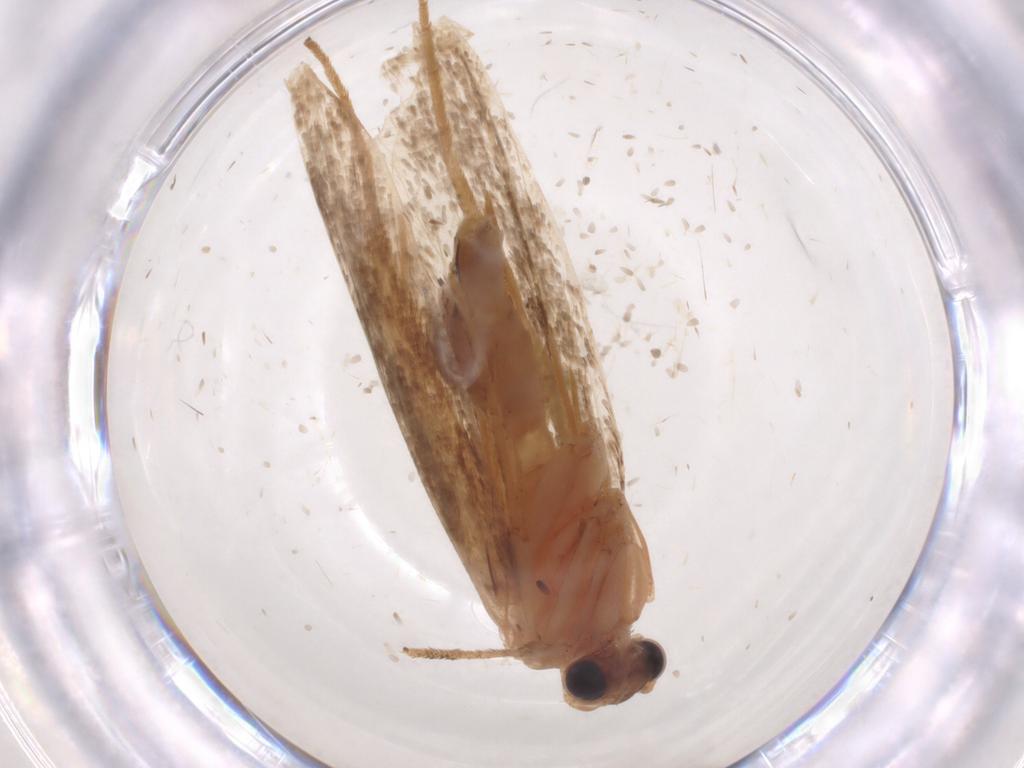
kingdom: Animalia
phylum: Arthropoda
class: Insecta
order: Lepidoptera
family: Tineidae
